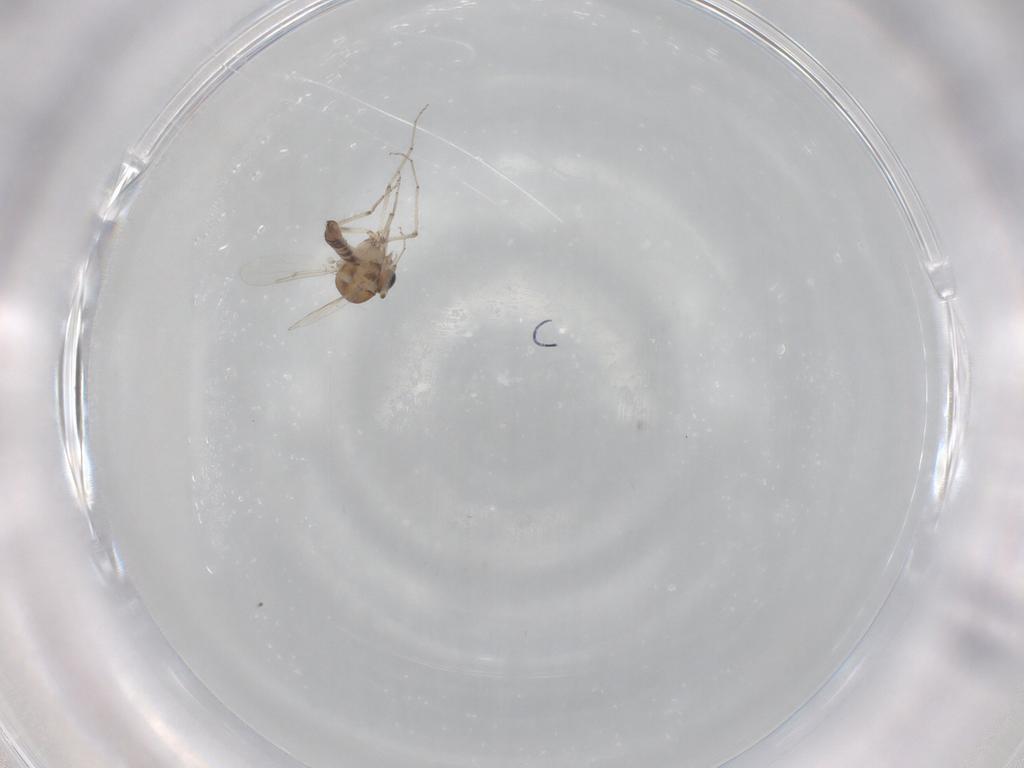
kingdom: Animalia
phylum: Arthropoda
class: Insecta
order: Diptera
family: Ceratopogonidae
